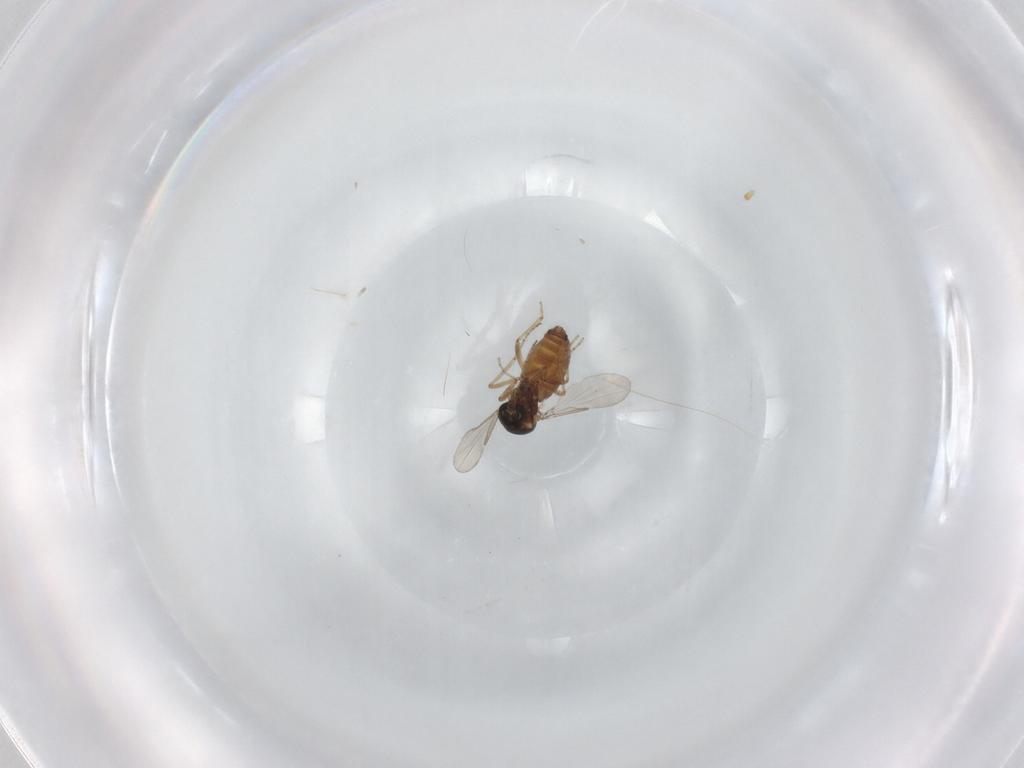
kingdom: Animalia
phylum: Arthropoda
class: Insecta
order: Diptera
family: Ceratopogonidae
